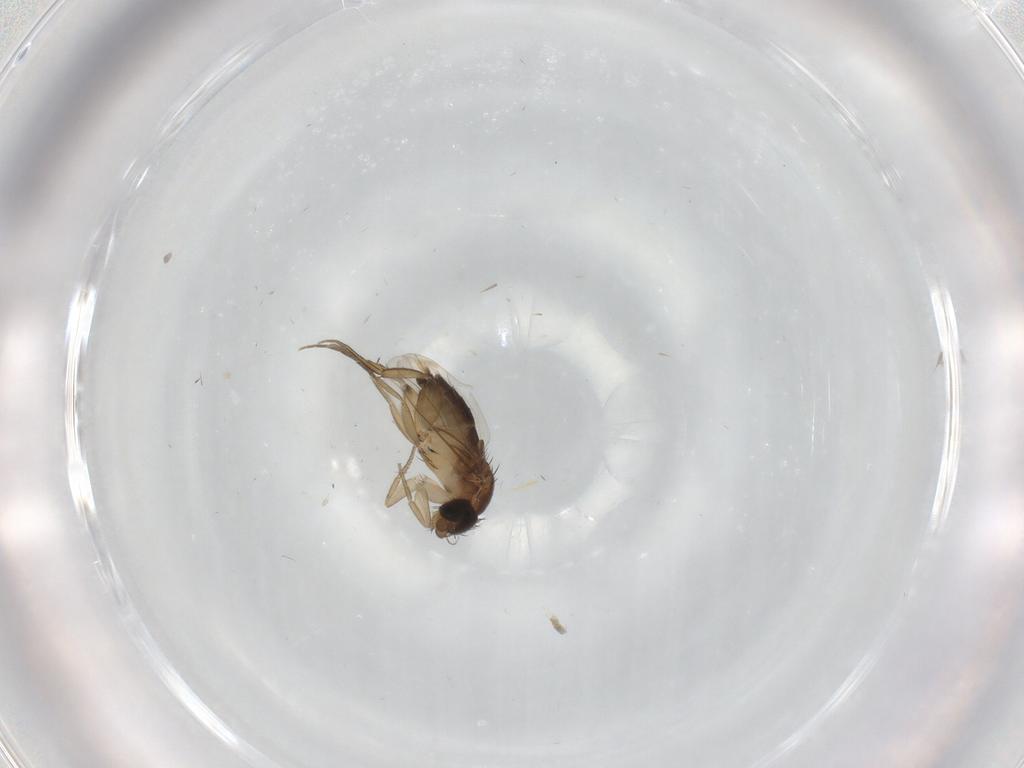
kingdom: Animalia
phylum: Arthropoda
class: Insecta
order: Diptera
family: Phoridae
